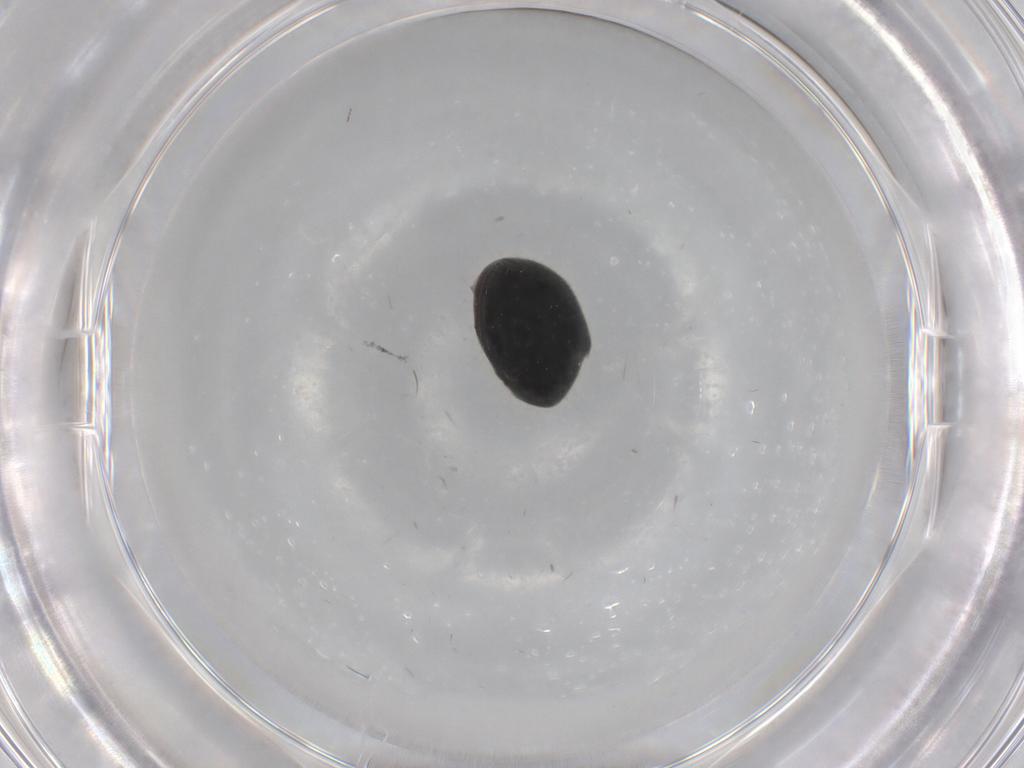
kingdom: Animalia
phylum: Arthropoda
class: Insecta
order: Coleoptera
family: Ptinidae
